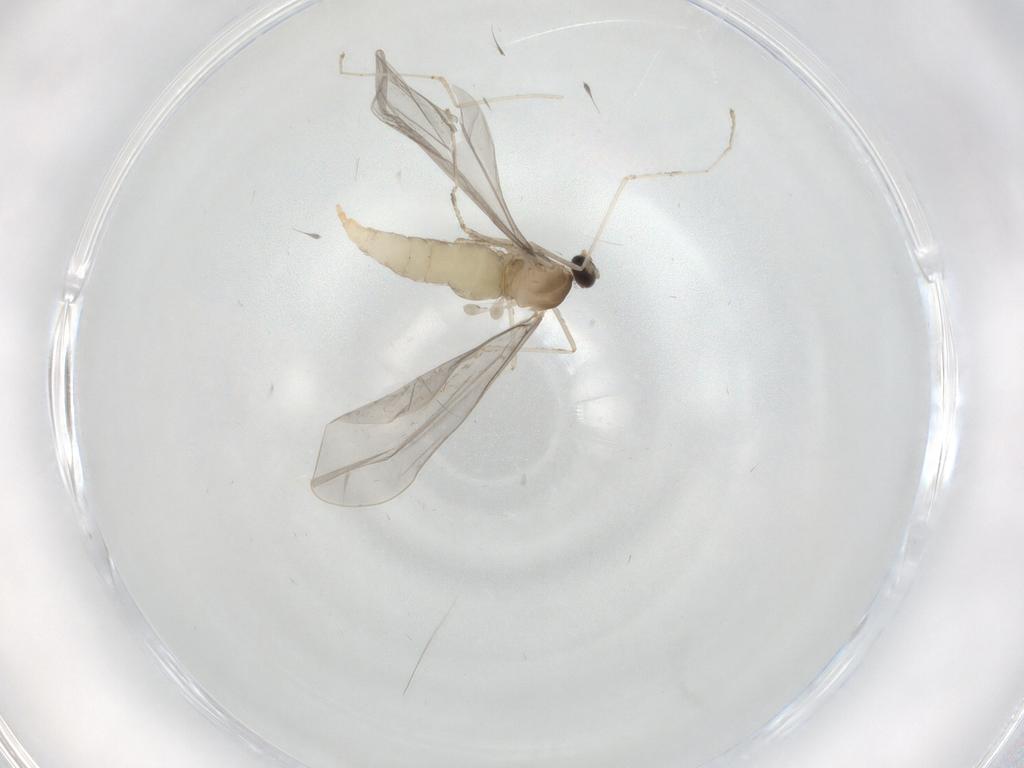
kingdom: Animalia
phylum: Arthropoda
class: Insecta
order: Diptera
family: Cecidomyiidae
